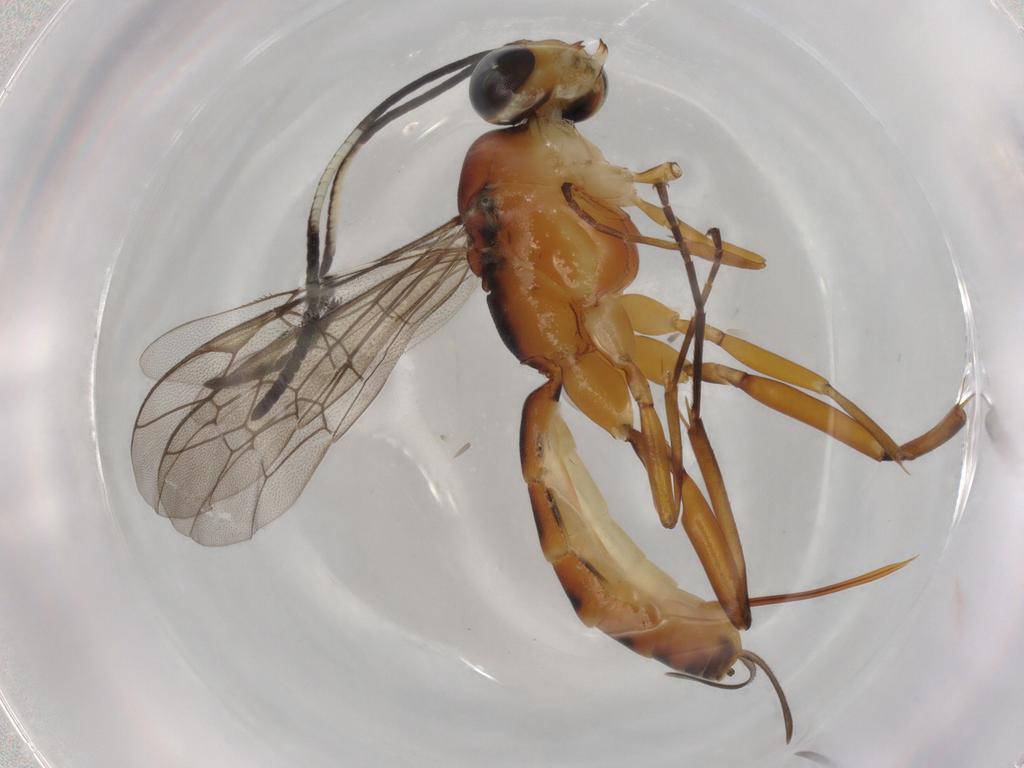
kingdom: Animalia
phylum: Arthropoda
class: Insecta
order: Hymenoptera
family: Mymaridae
